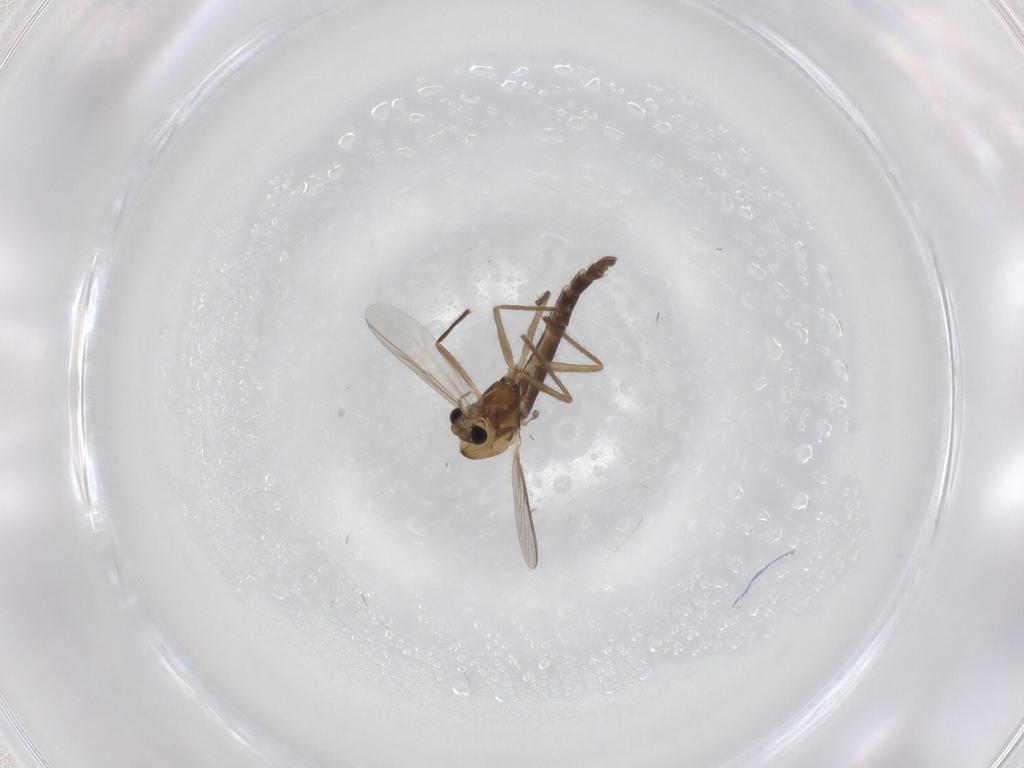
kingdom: Animalia
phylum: Arthropoda
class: Insecta
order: Diptera
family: Chironomidae
